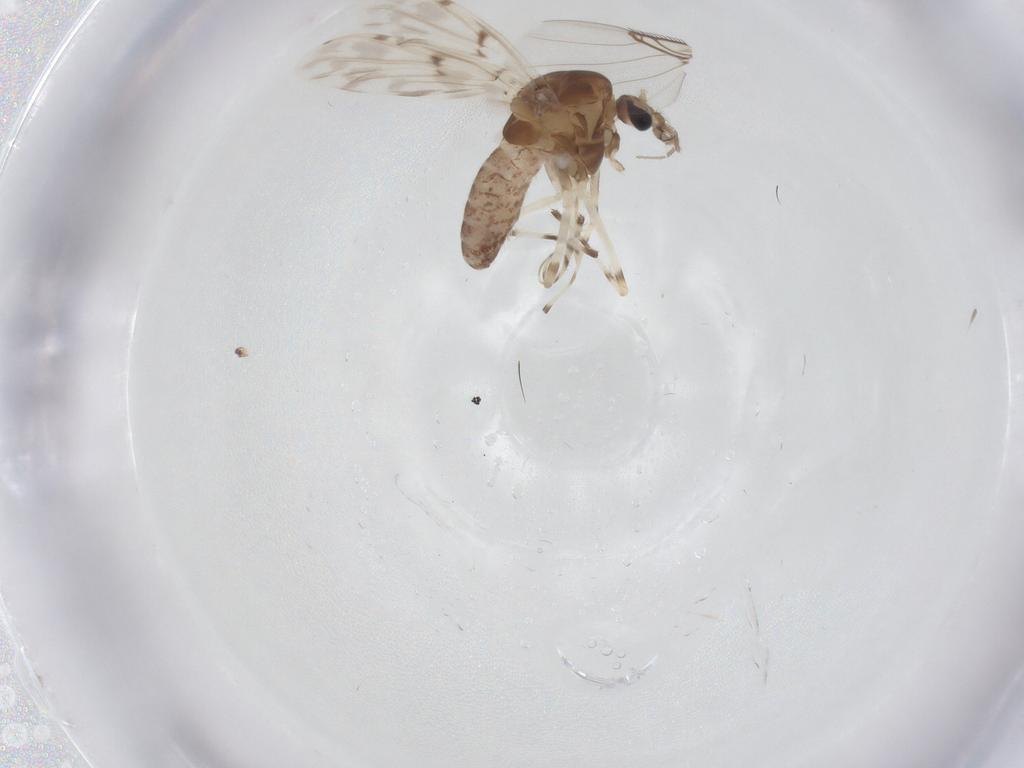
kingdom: Animalia
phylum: Arthropoda
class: Insecta
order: Diptera
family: Chironomidae
